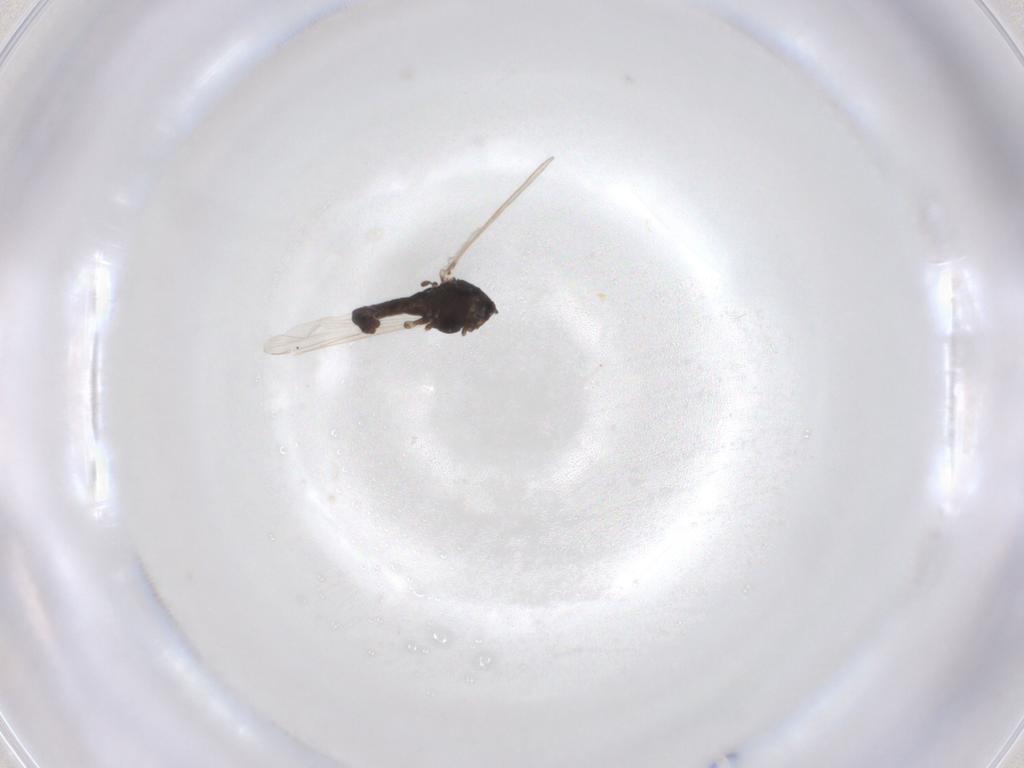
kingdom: Animalia
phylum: Arthropoda
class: Insecta
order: Diptera
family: Chironomidae
